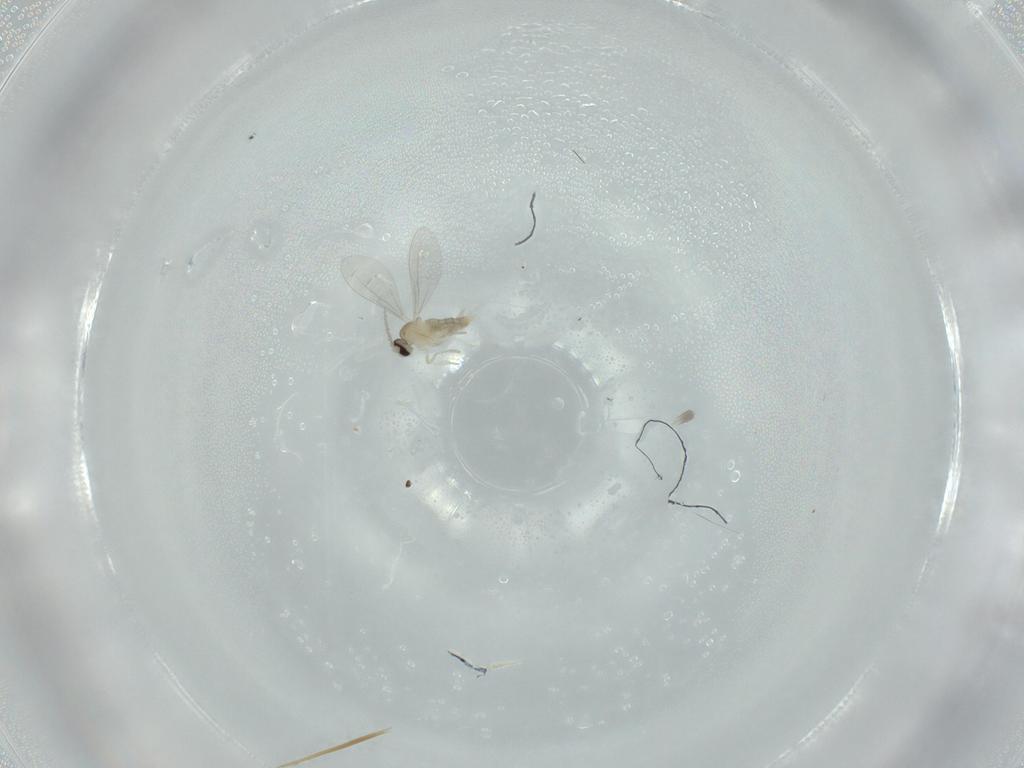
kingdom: Animalia
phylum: Arthropoda
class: Insecta
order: Diptera
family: Cecidomyiidae
